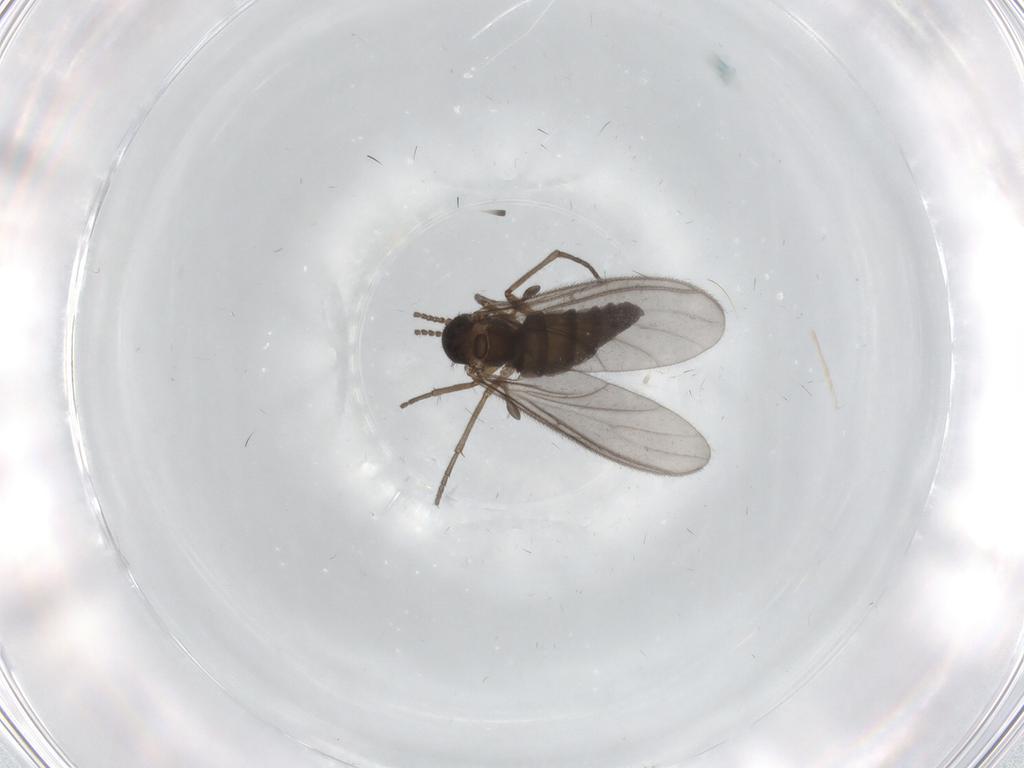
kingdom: Animalia
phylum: Arthropoda
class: Insecta
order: Diptera
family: Sciaridae
